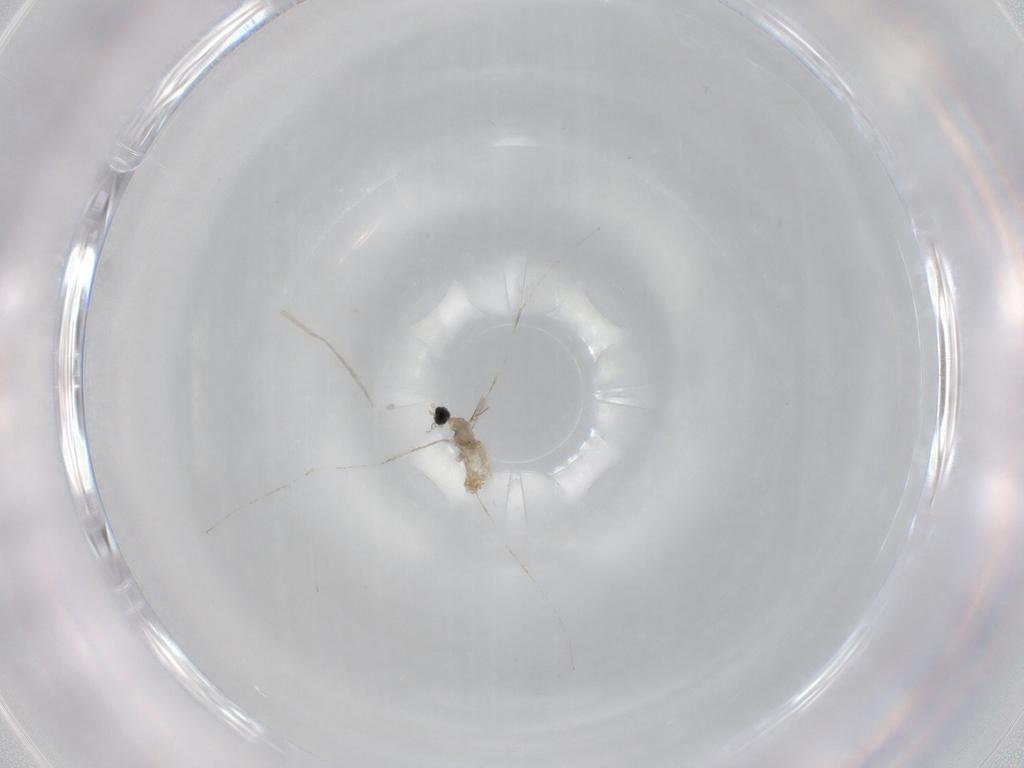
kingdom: Animalia
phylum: Arthropoda
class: Insecta
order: Diptera
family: Cecidomyiidae
